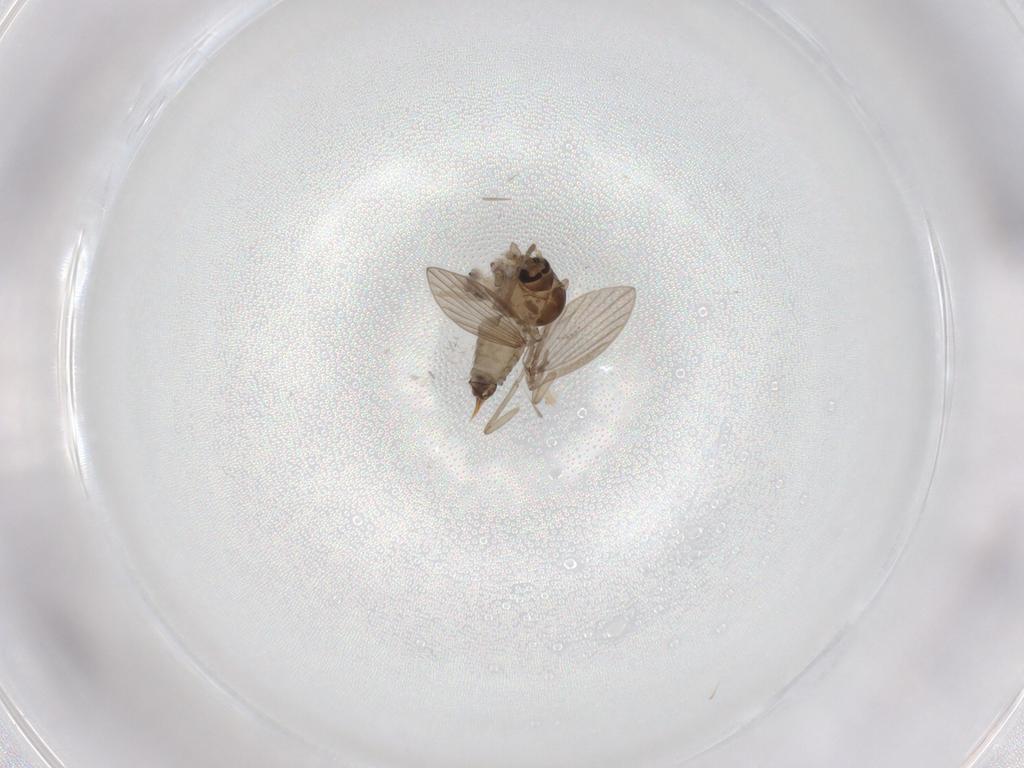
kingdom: Animalia
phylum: Arthropoda
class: Insecta
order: Diptera
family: Psychodidae
